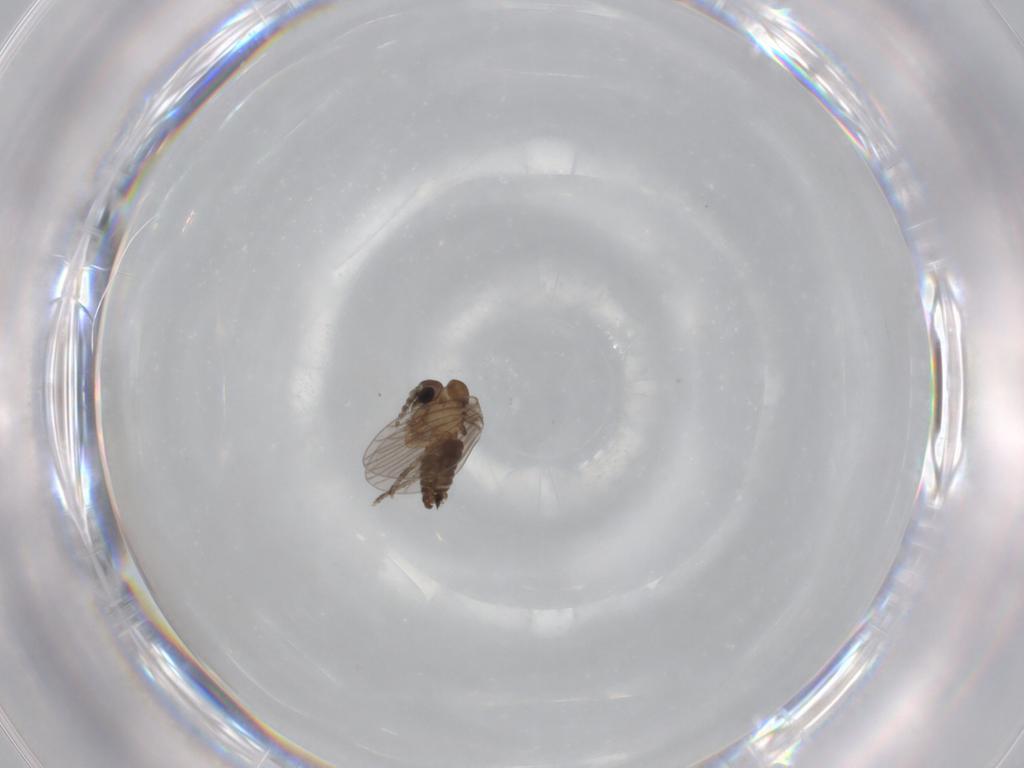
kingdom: Animalia
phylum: Arthropoda
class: Insecta
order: Diptera
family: Psychodidae
